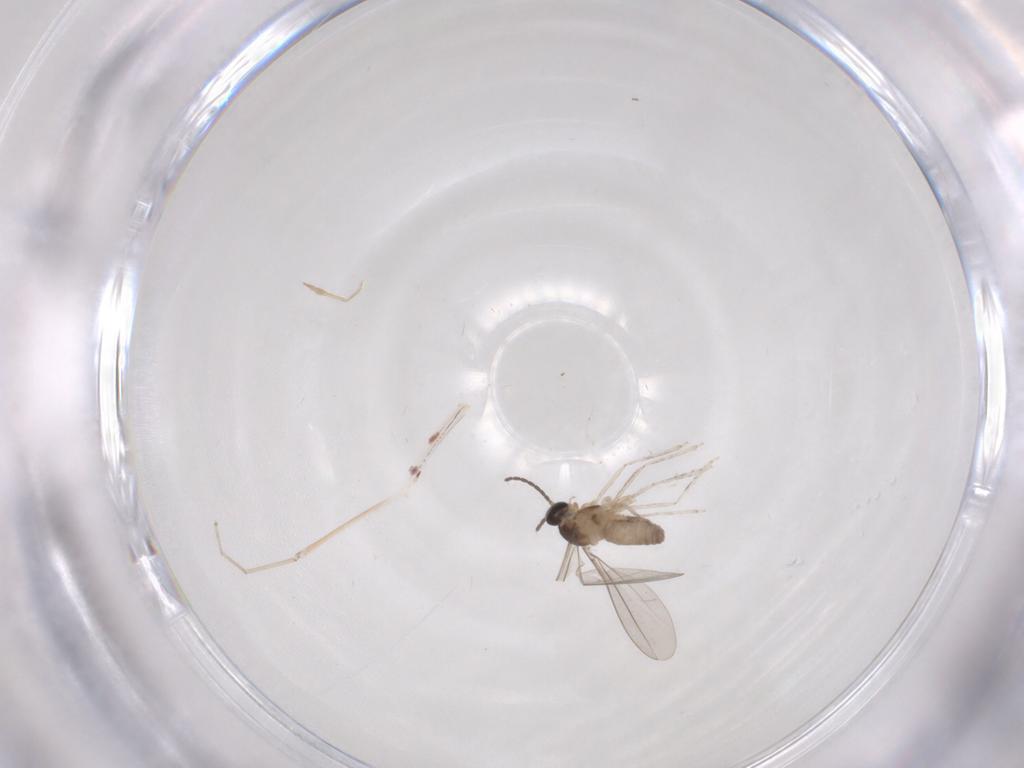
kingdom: Animalia
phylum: Arthropoda
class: Insecta
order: Diptera
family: Cecidomyiidae
